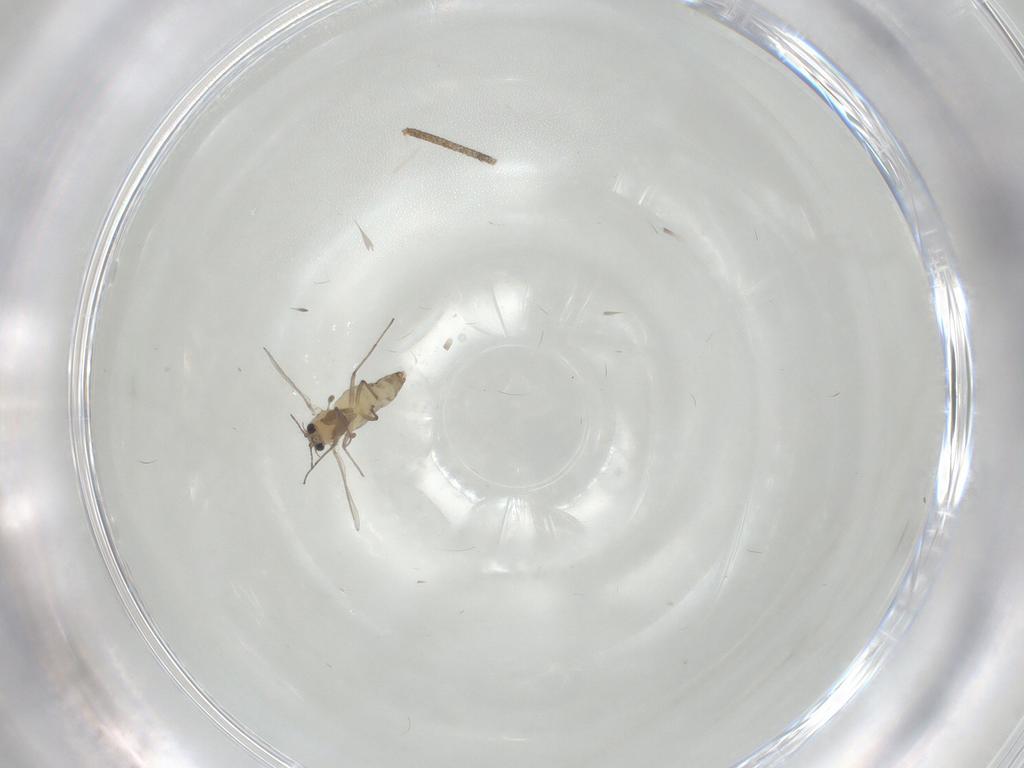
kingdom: Animalia
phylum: Arthropoda
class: Insecta
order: Diptera
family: Chironomidae
